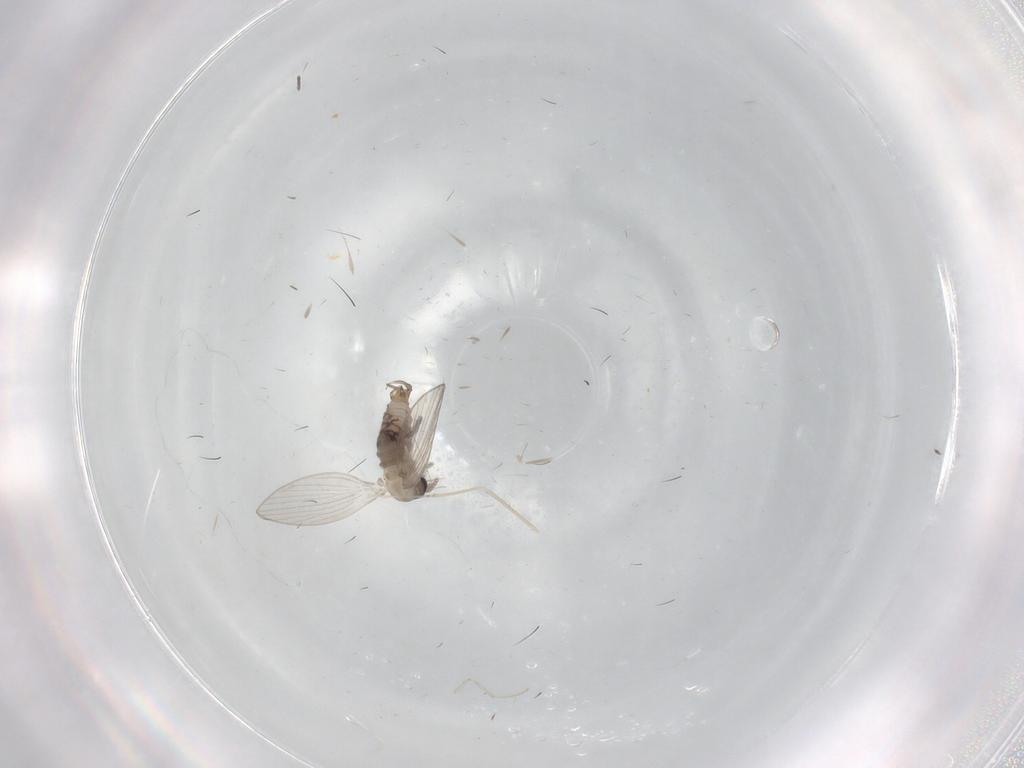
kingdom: Animalia
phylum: Arthropoda
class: Insecta
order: Diptera
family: Psychodidae
